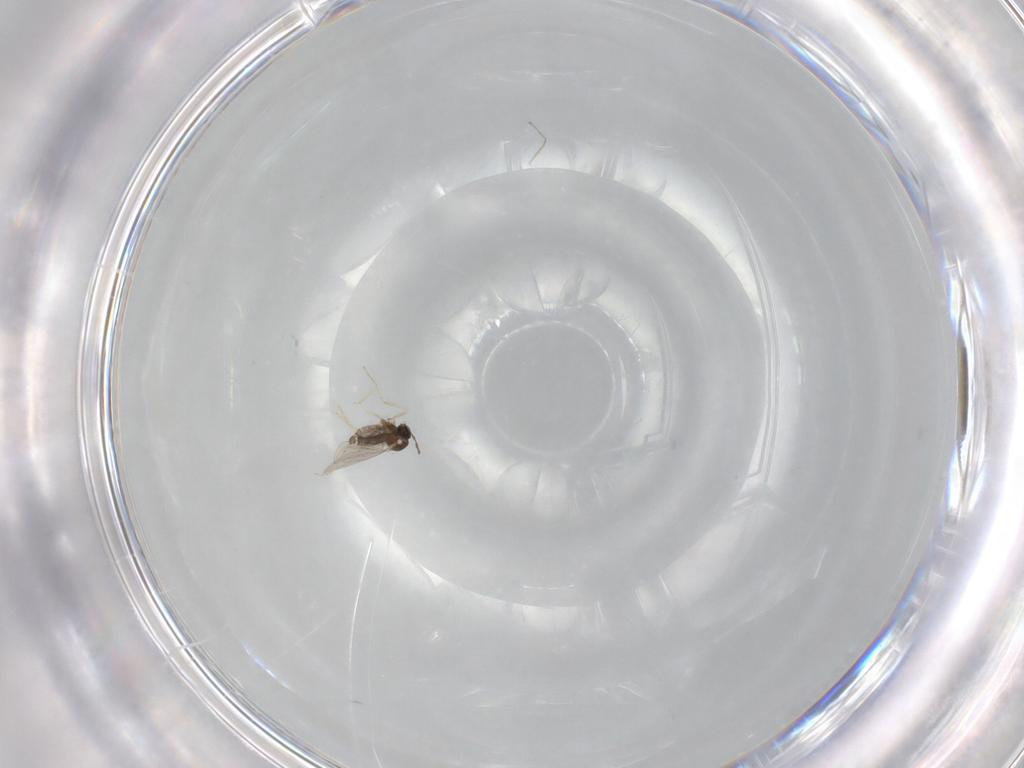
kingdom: Animalia
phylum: Arthropoda
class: Insecta
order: Diptera
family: Cecidomyiidae
